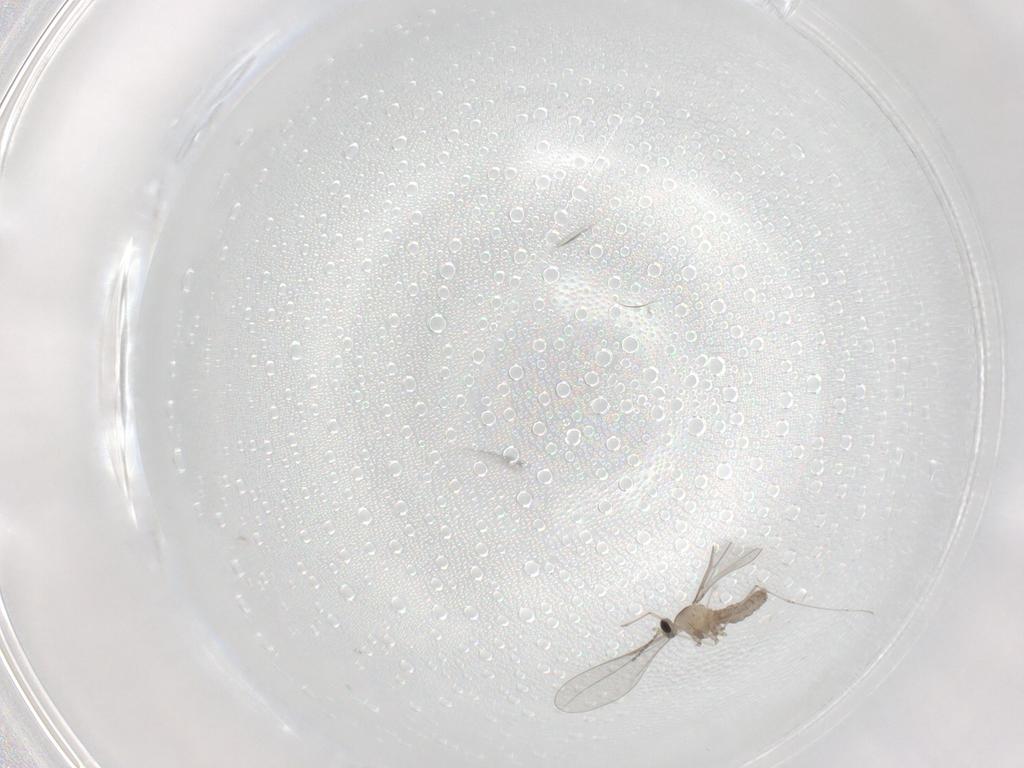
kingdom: Animalia
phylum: Arthropoda
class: Insecta
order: Diptera
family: Cecidomyiidae
